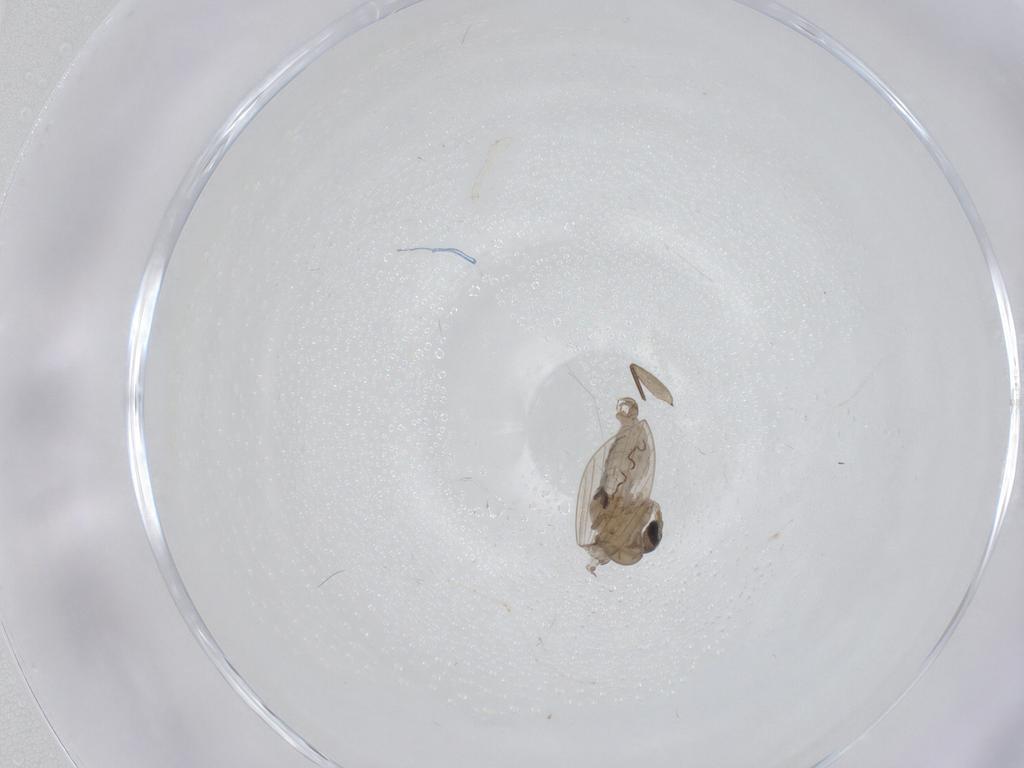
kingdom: Animalia
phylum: Arthropoda
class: Insecta
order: Diptera
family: Psychodidae
